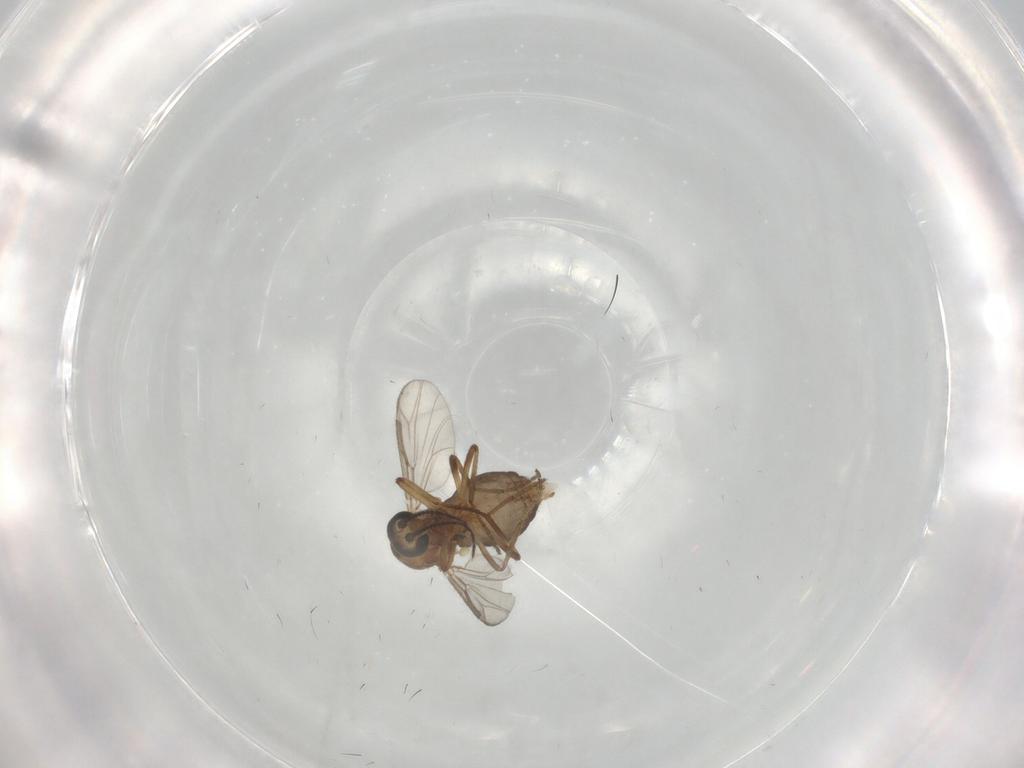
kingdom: Animalia
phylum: Arthropoda
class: Insecta
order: Diptera
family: Ceratopogonidae
